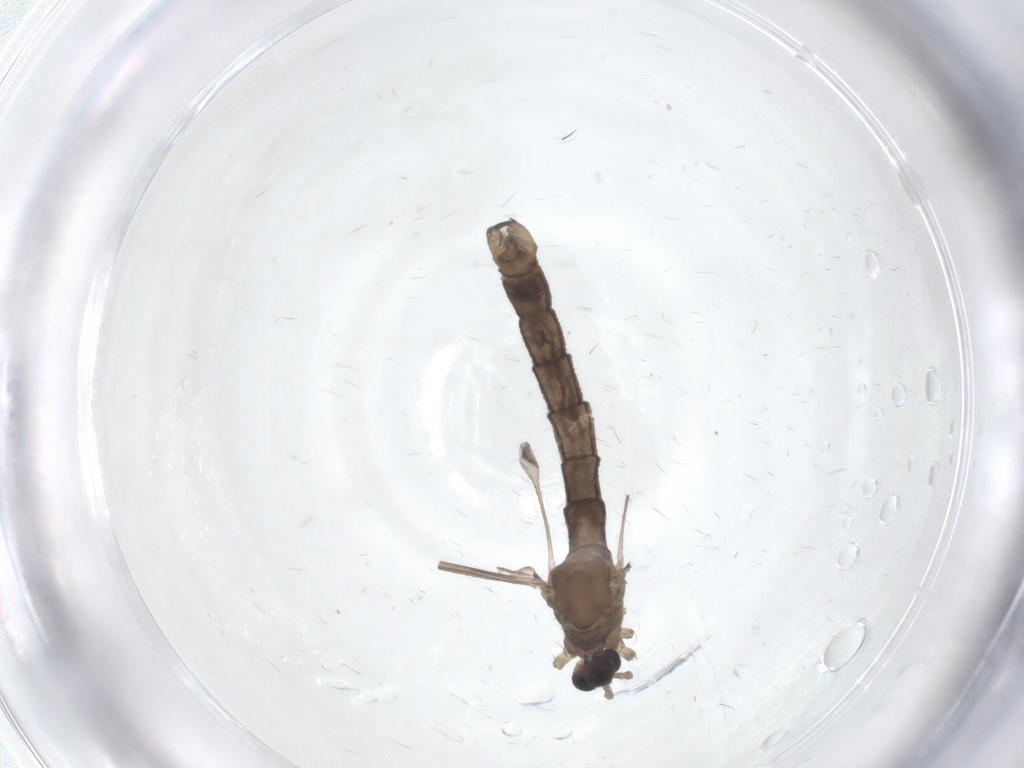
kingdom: Animalia
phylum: Arthropoda
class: Insecta
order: Diptera
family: Limoniidae
